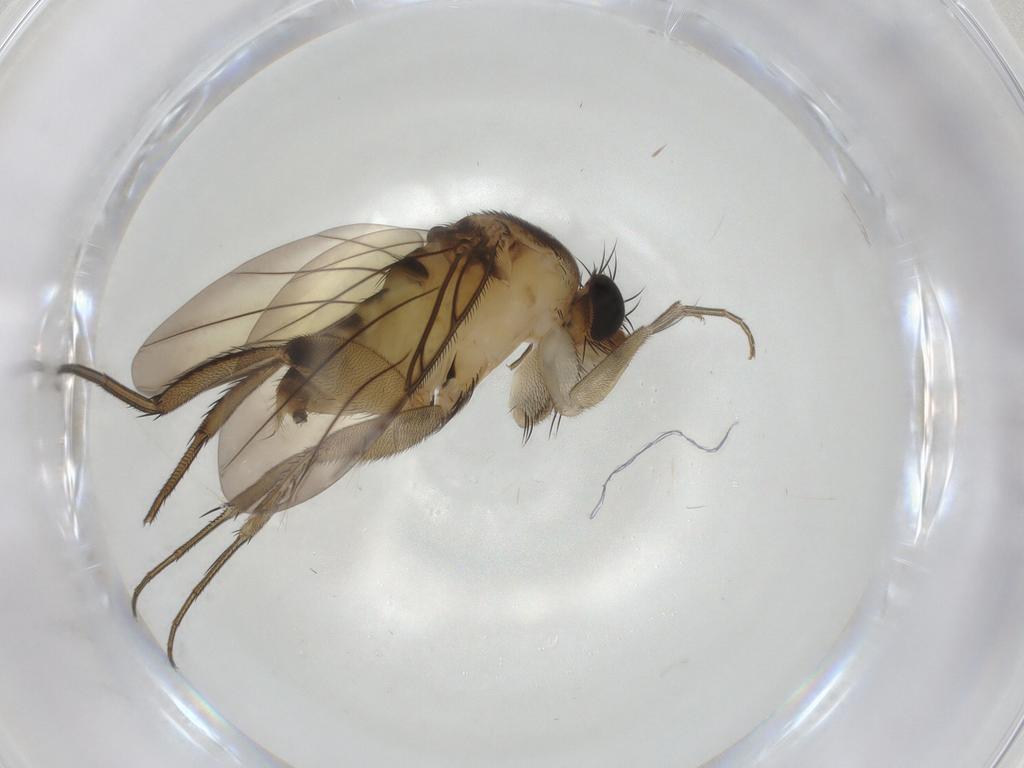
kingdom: Animalia
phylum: Arthropoda
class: Insecta
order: Diptera
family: Phoridae
